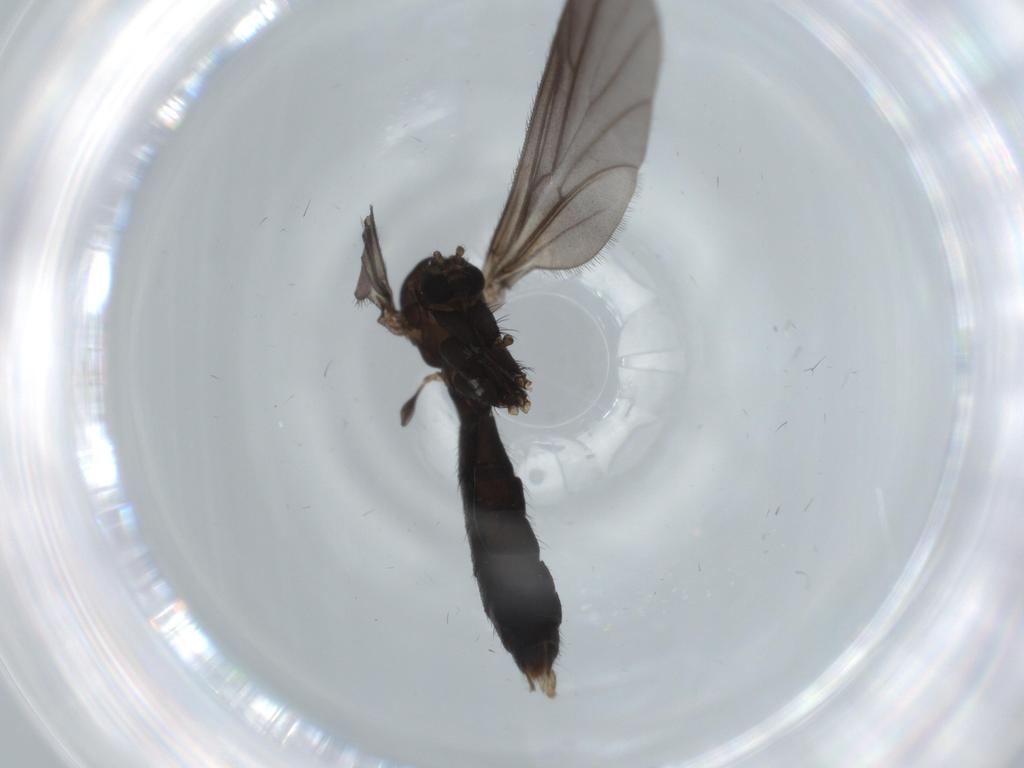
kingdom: Animalia
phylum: Arthropoda
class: Insecta
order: Diptera
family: Ditomyiidae
